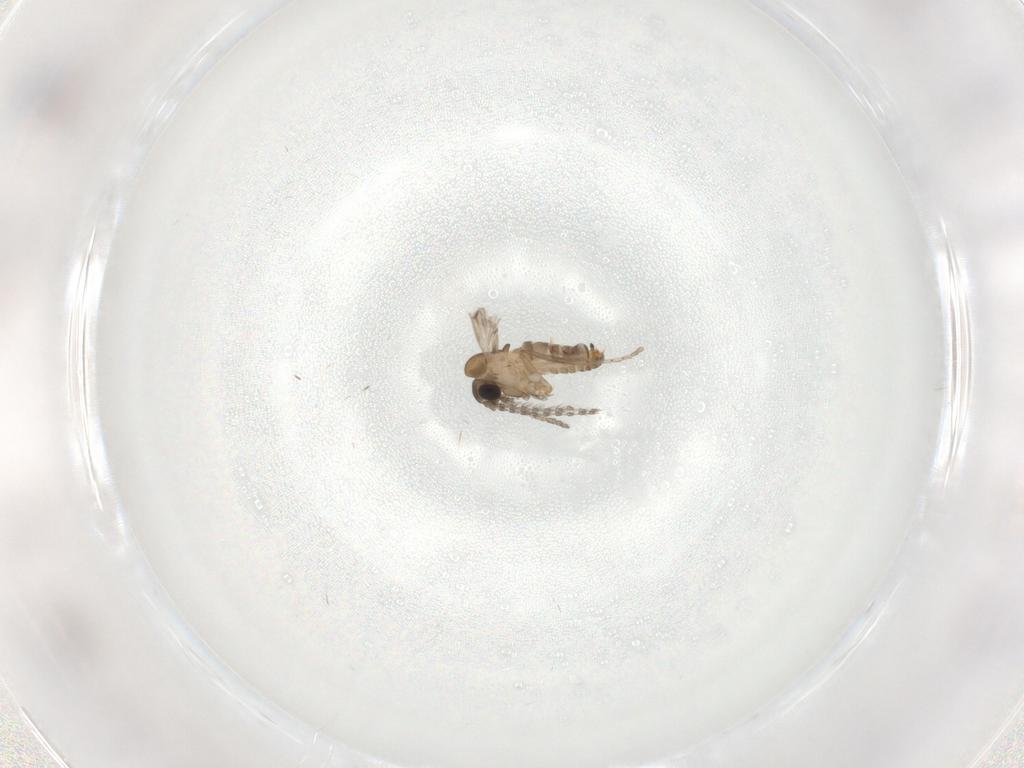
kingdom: Animalia
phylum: Arthropoda
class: Insecta
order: Diptera
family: Psychodidae
